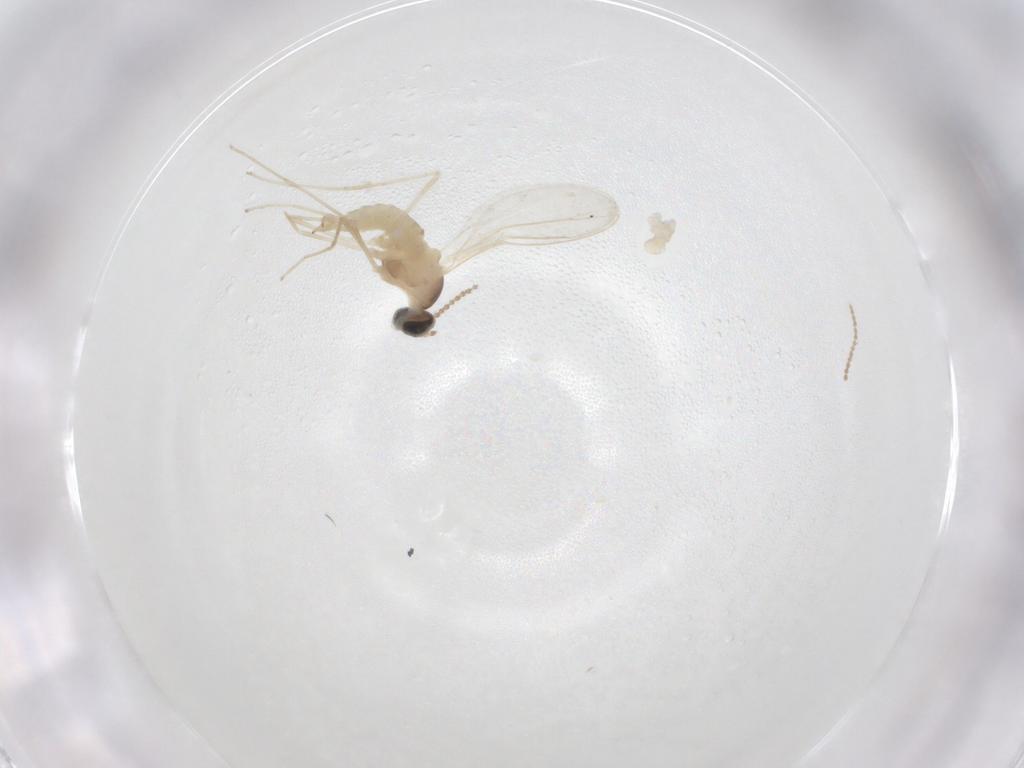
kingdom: Animalia
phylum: Arthropoda
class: Insecta
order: Diptera
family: Cecidomyiidae
